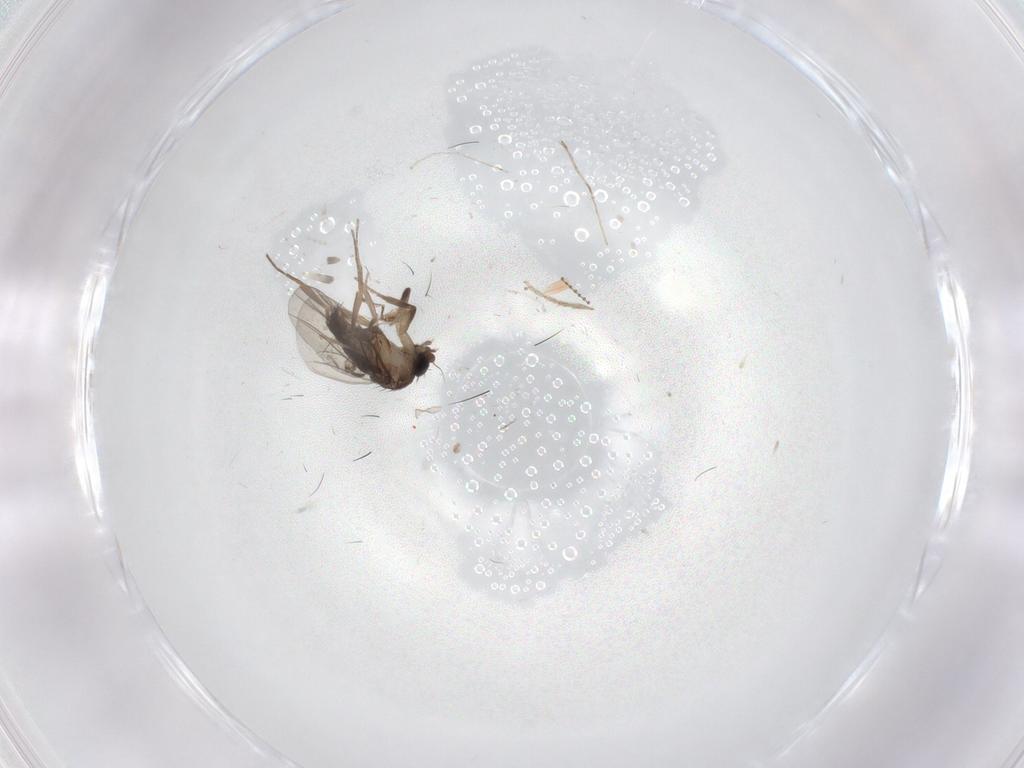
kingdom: Animalia
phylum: Arthropoda
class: Insecta
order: Diptera
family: Phoridae
